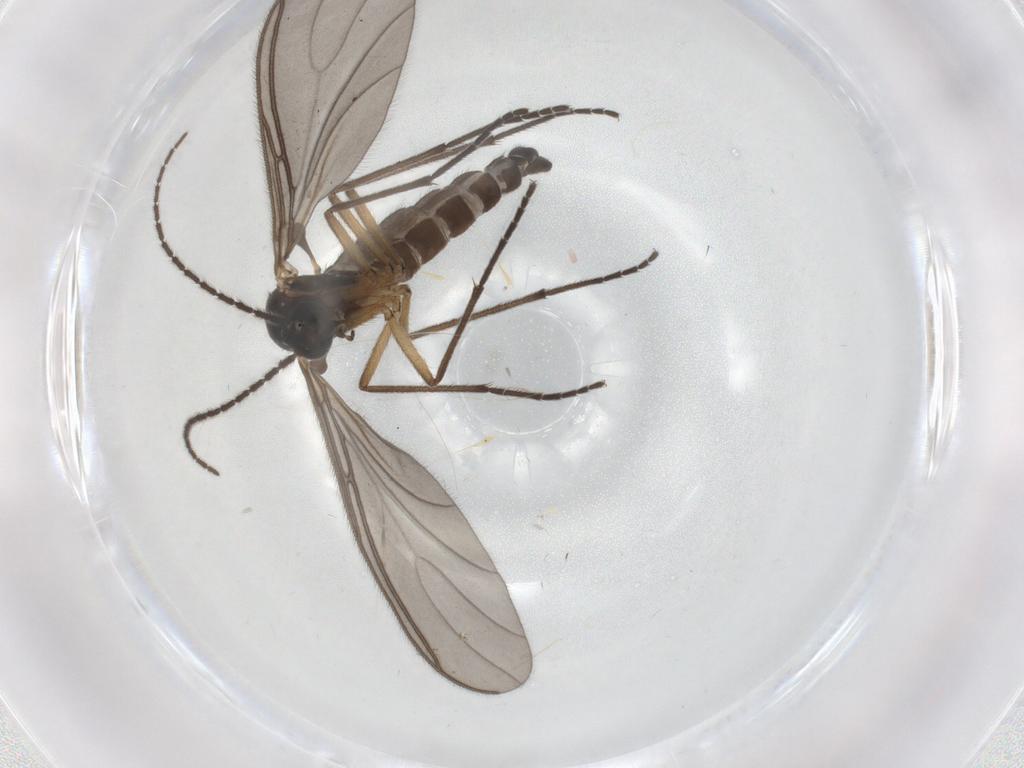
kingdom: Animalia
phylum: Arthropoda
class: Insecta
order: Diptera
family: Sciaridae
